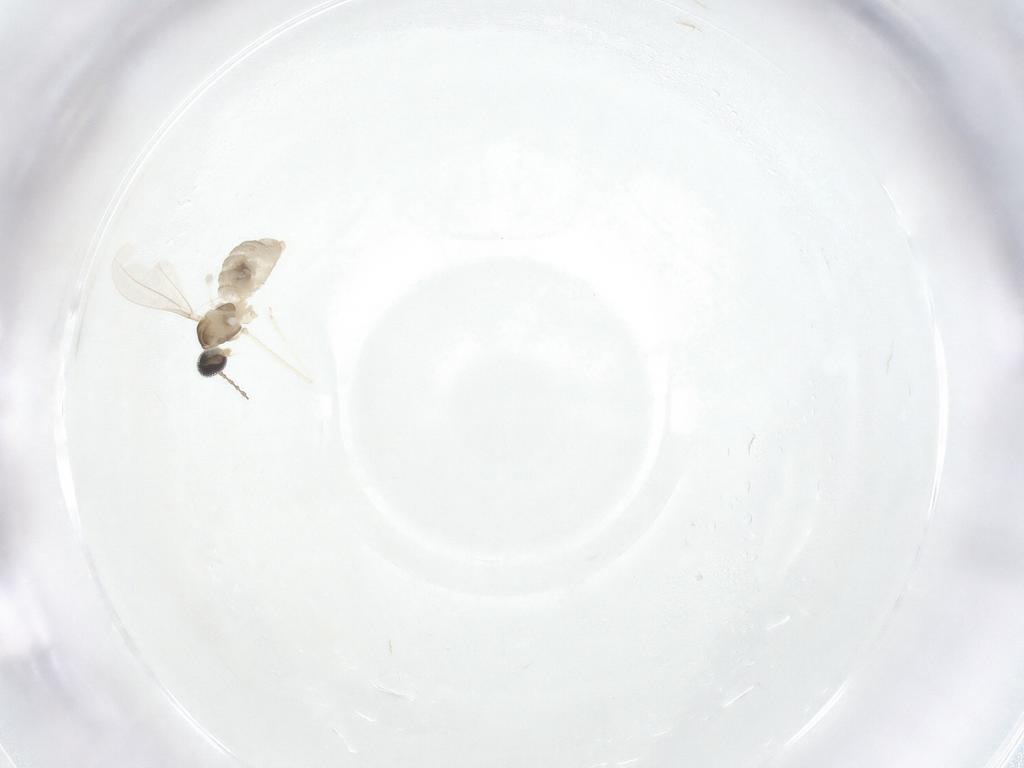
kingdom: Animalia
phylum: Arthropoda
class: Insecta
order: Diptera
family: Cecidomyiidae
